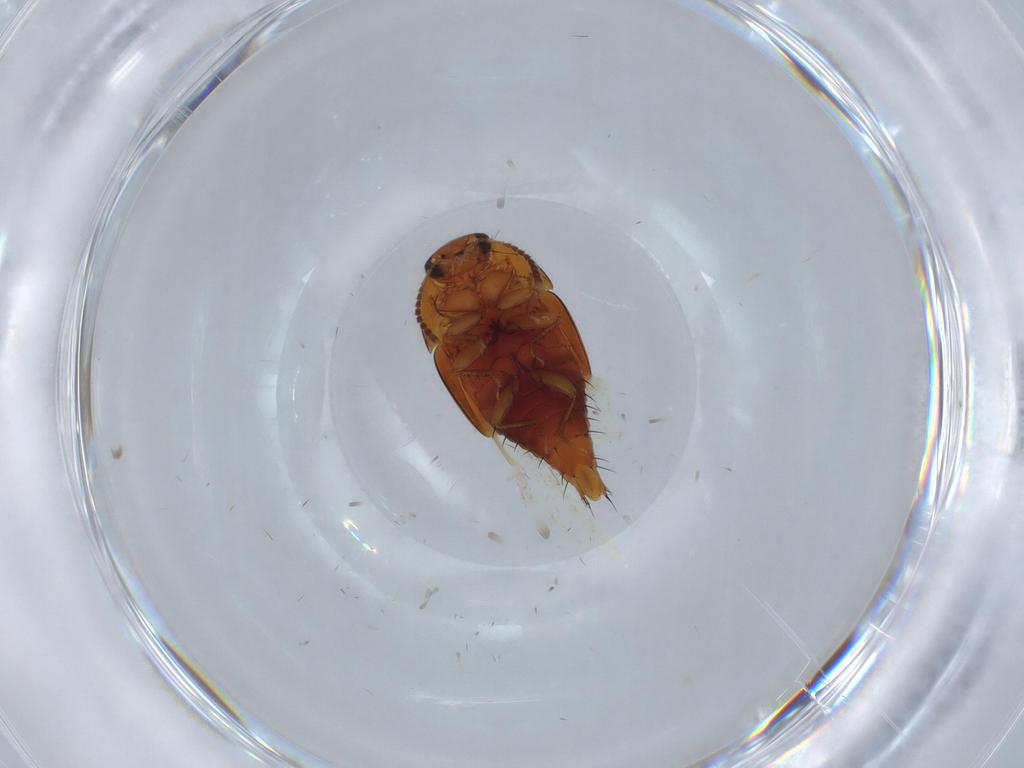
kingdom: Animalia
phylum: Arthropoda
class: Insecta
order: Coleoptera
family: Staphylinidae
